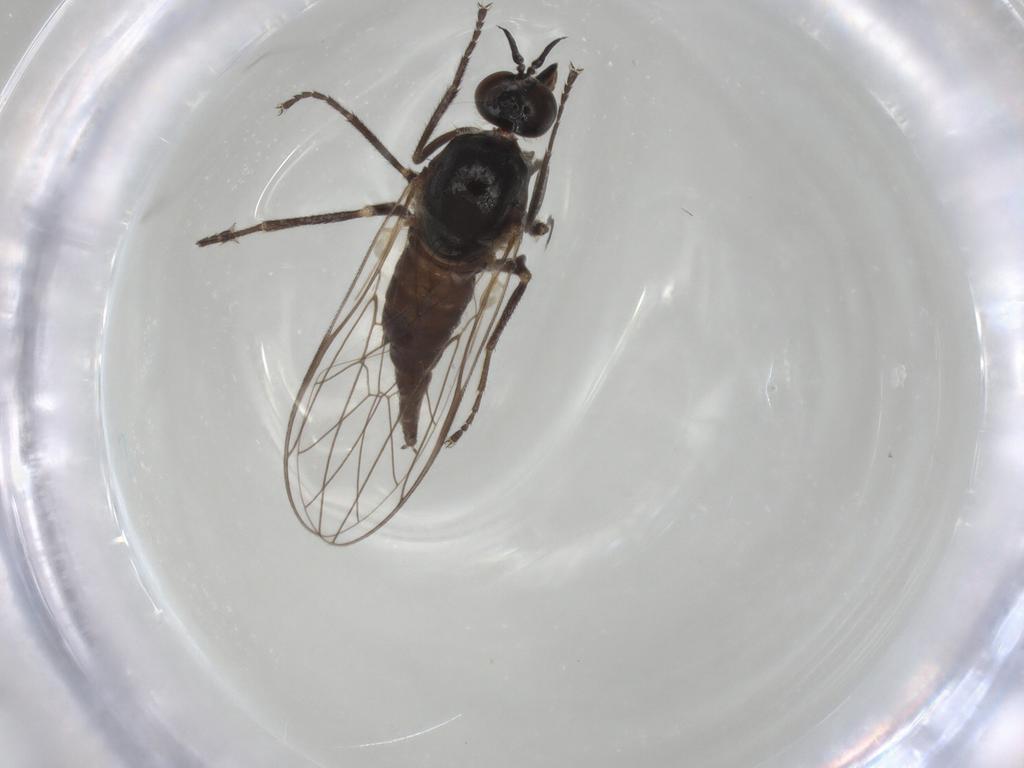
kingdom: Animalia
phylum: Arthropoda
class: Insecta
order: Diptera
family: Empididae
